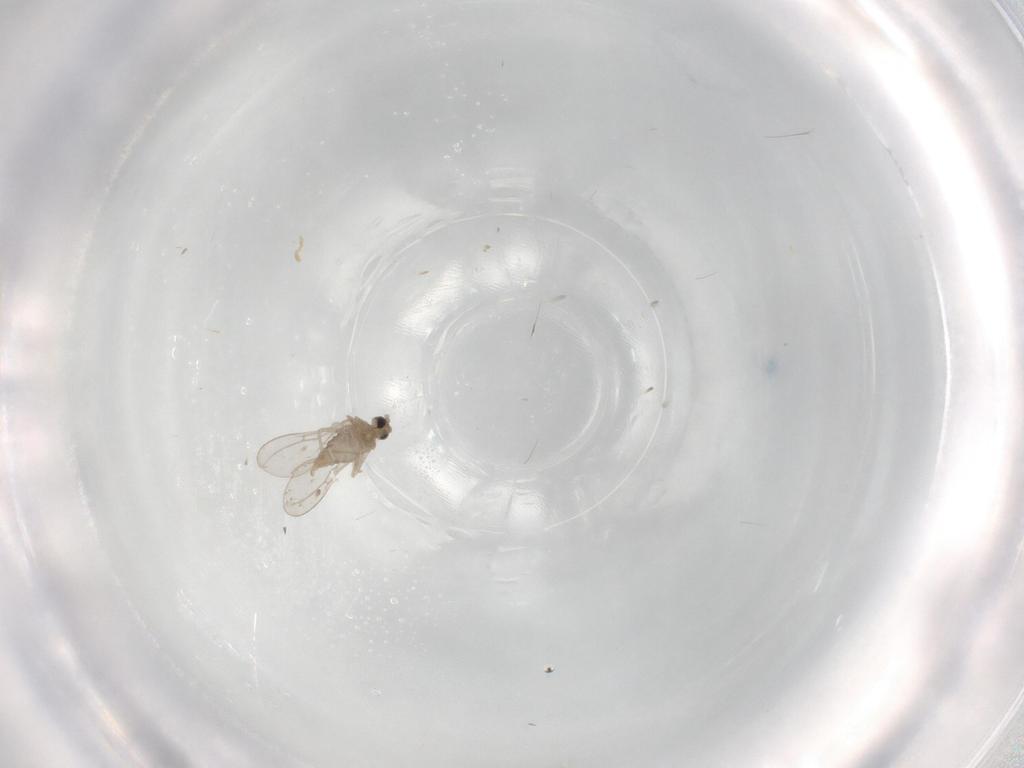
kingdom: Animalia
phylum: Arthropoda
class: Insecta
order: Diptera
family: Cecidomyiidae
